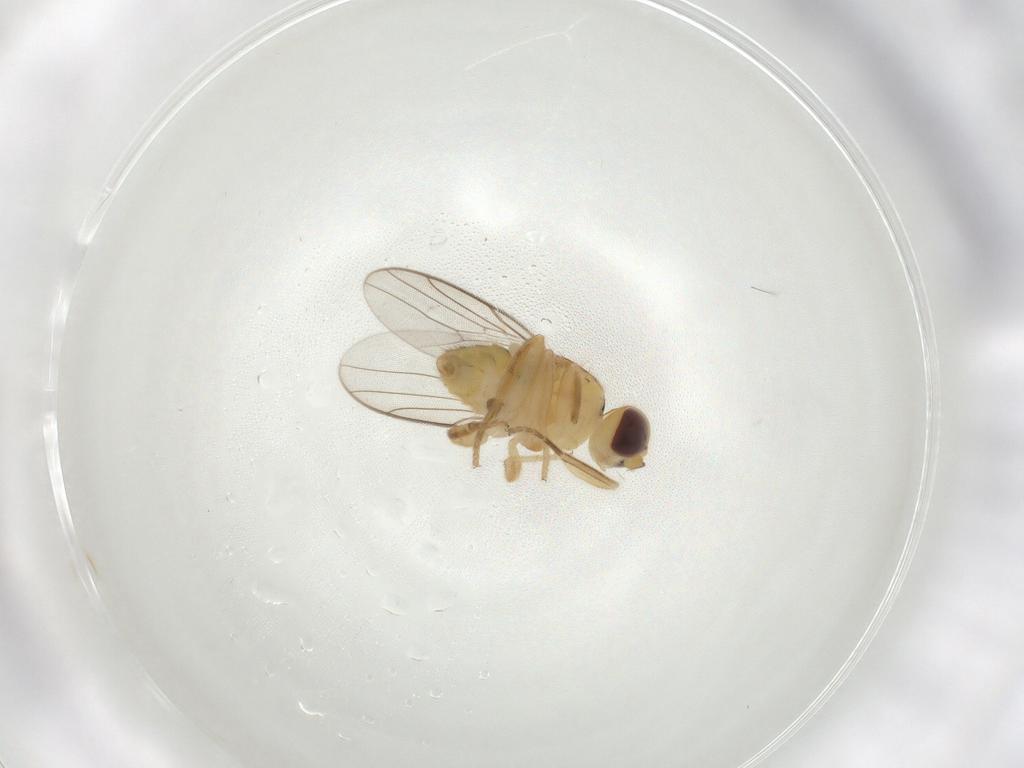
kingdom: Animalia
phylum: Arthropoda
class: Insecta
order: Diptera
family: Chloropidae
